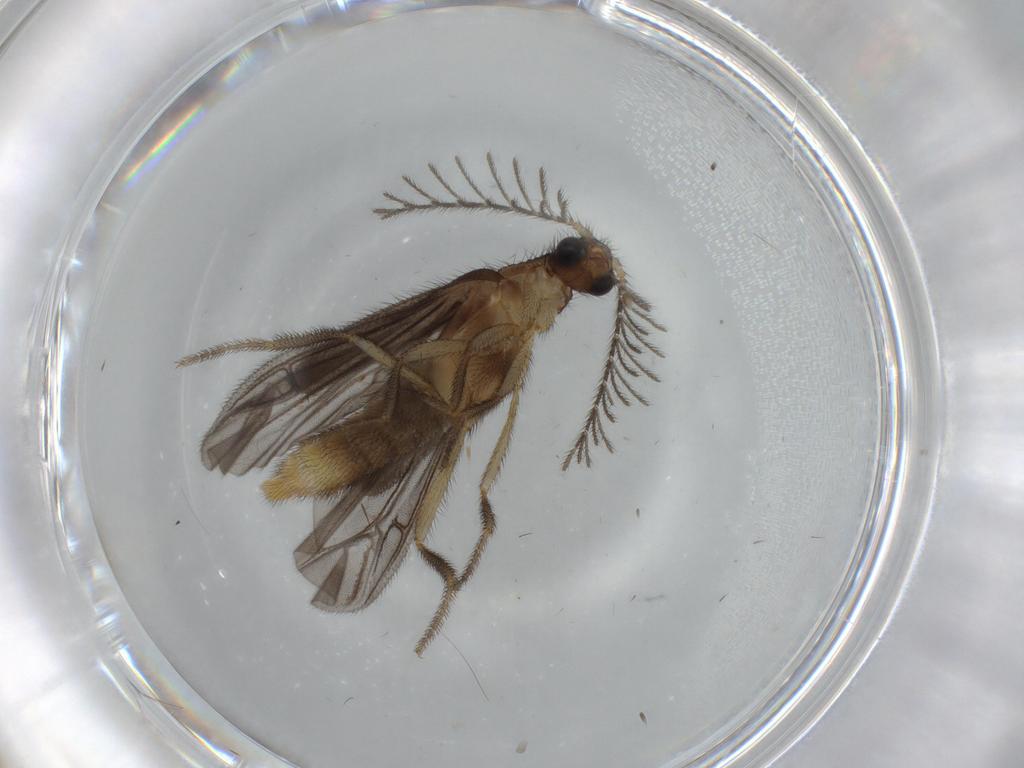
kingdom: Animalia
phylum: Arthropoda
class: Insecta
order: Coleoptera
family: Phengodidae
